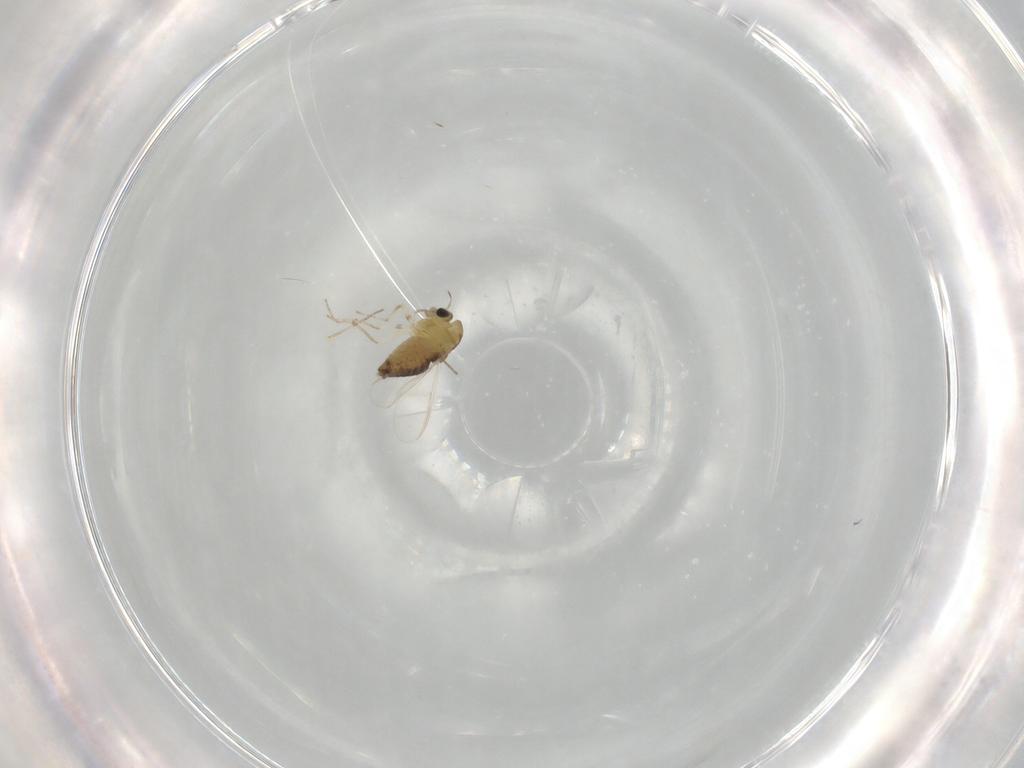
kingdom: Animalia
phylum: Arthropoda
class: Insecta
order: Diptera
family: Chironomidae
